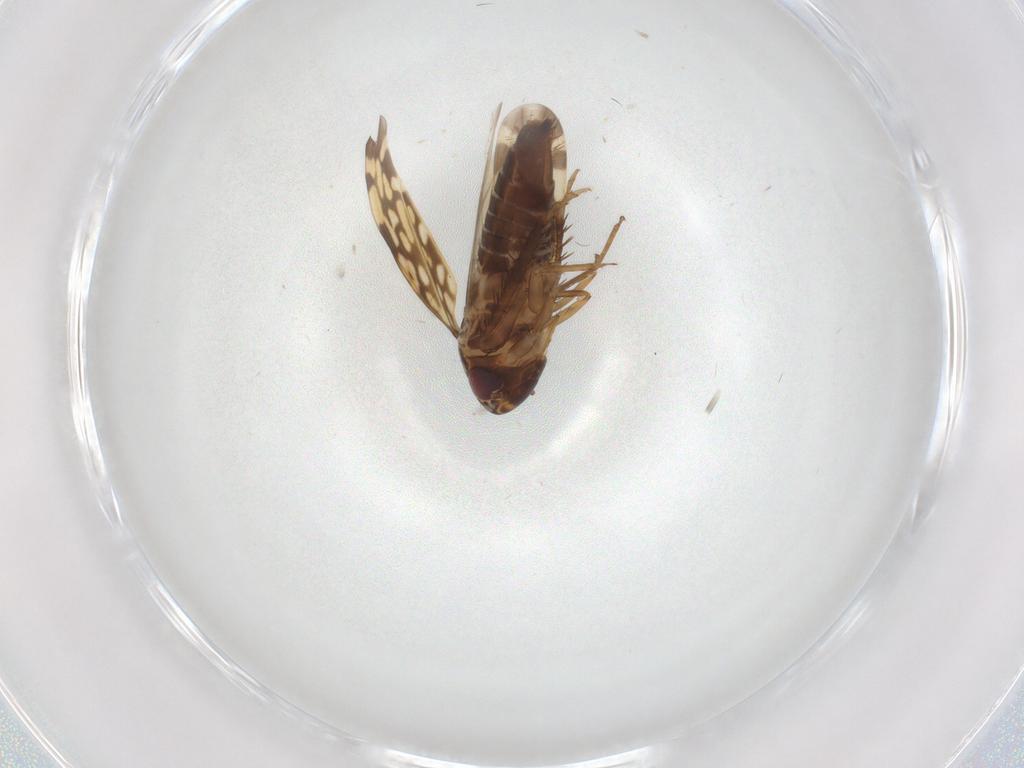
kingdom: Animalia
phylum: Arthropoda
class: Insecta
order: Hemiptera
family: Cicadellidae
